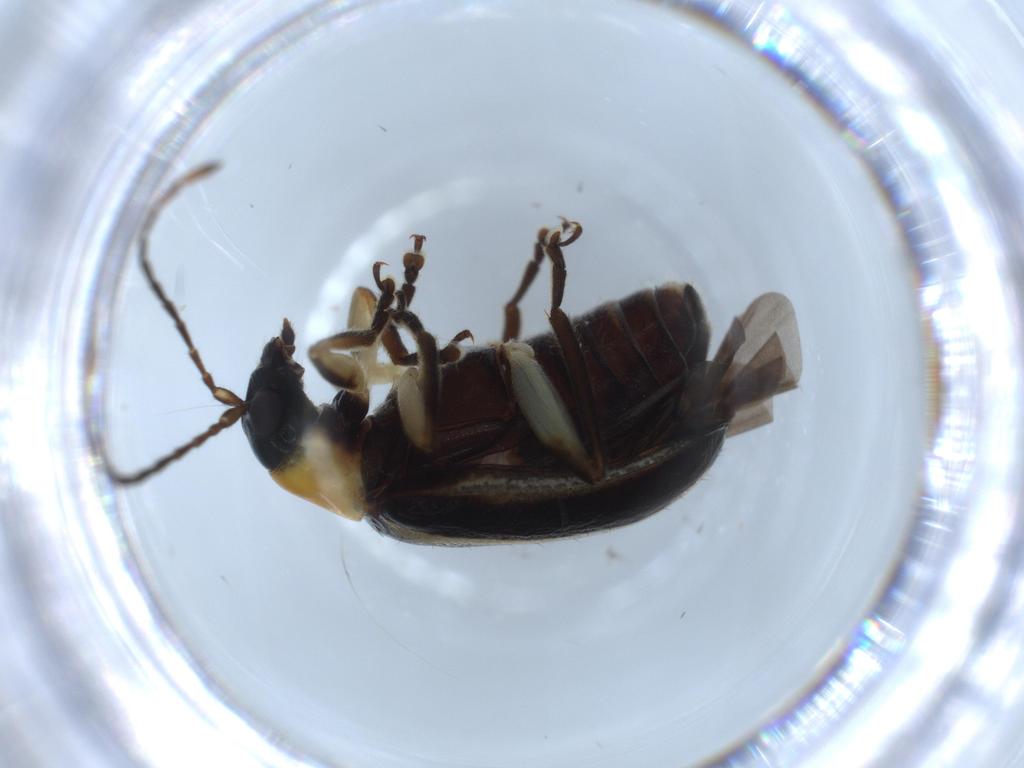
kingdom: Animalia
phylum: Arthropoda
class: Insecta
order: Coleoptera
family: Chrysomelidae
